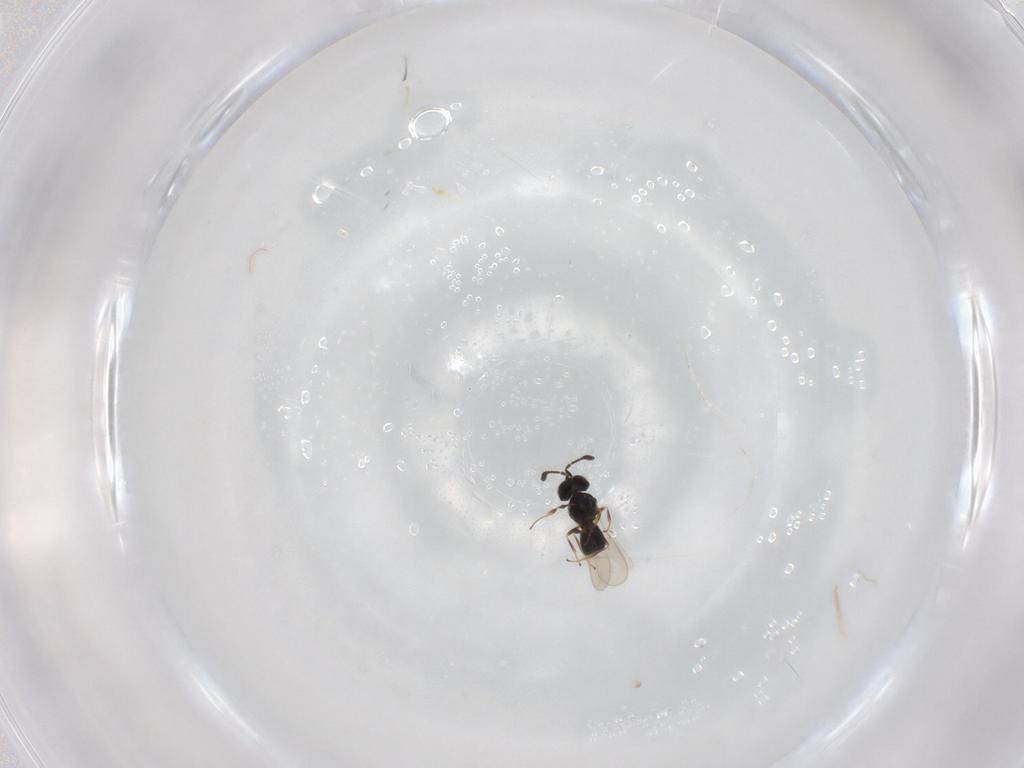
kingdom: Animalia
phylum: Arthropoda
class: Insecta
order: Hymenoptera
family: Scelionidae
